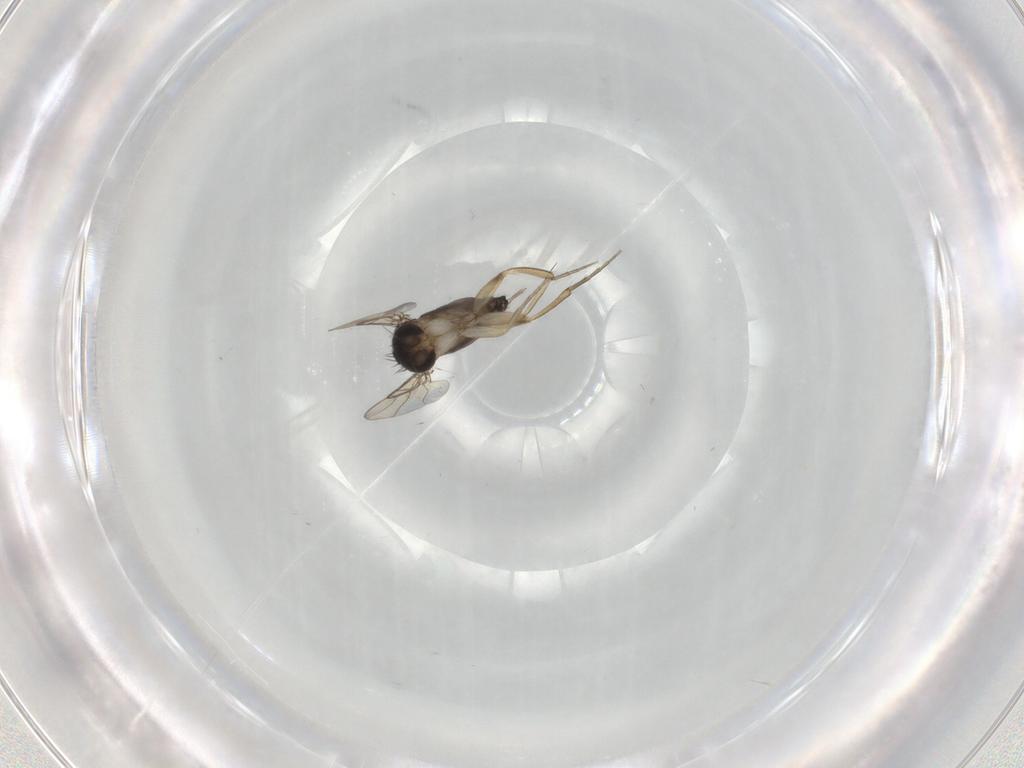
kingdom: Animalia
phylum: Arthropoda
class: Insecta
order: Diptera
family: Phoridae
